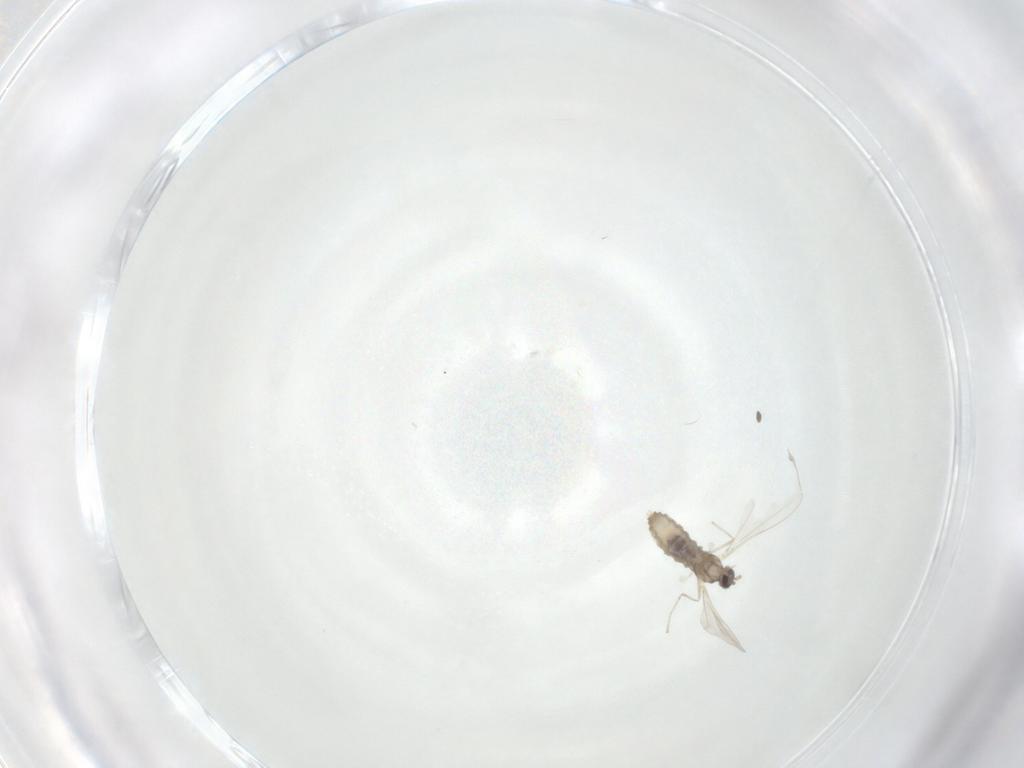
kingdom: Animalia
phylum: Arthropoda
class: Insecta
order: Diptera
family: Cecidomyiidae
